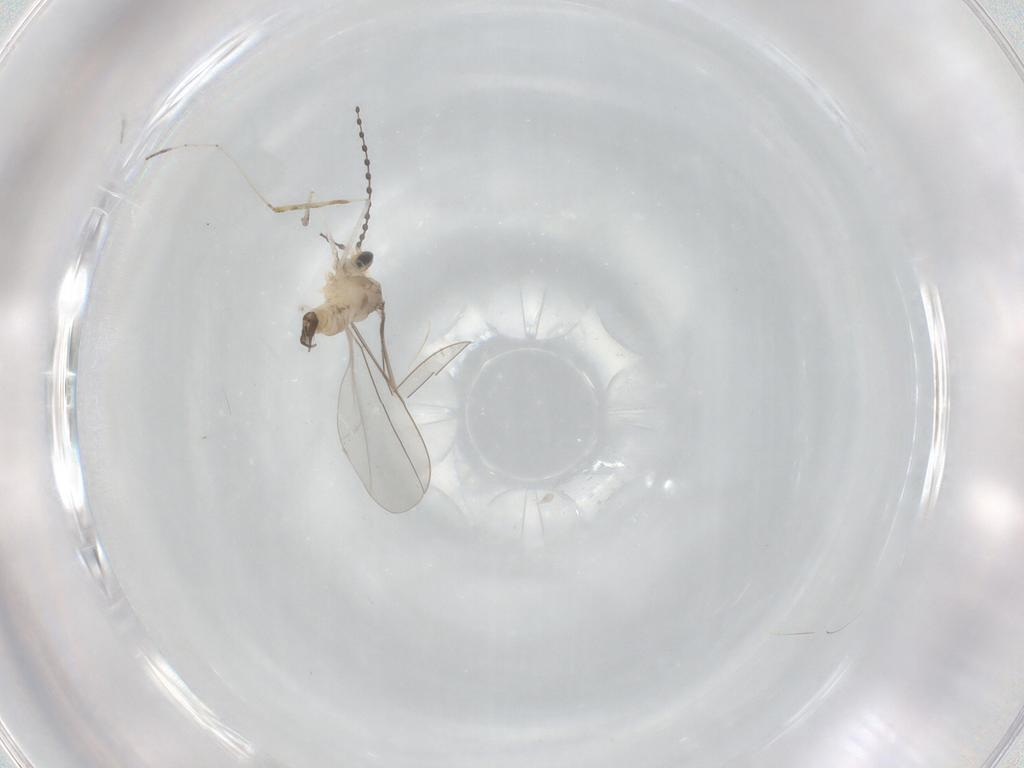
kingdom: Animalia
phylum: Arthropoda
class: Insecta
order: Diptera
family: Cecidomyiidae
